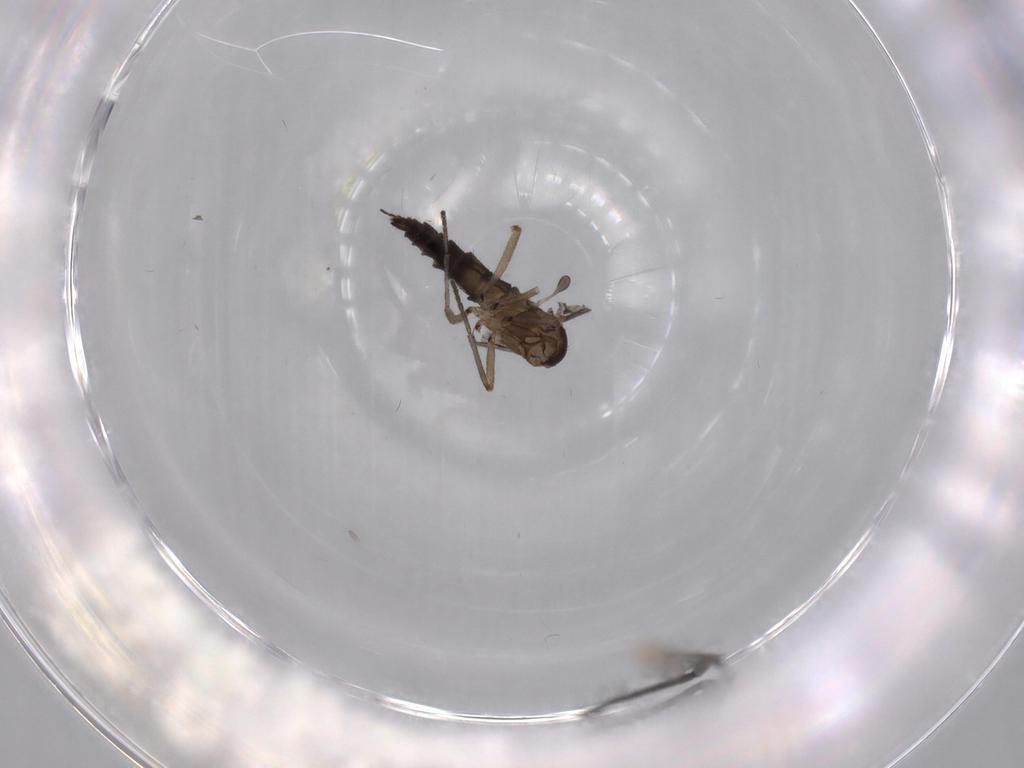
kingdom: Animalia
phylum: Arthropoda
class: Insecta
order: Diptera
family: Sciaridae
